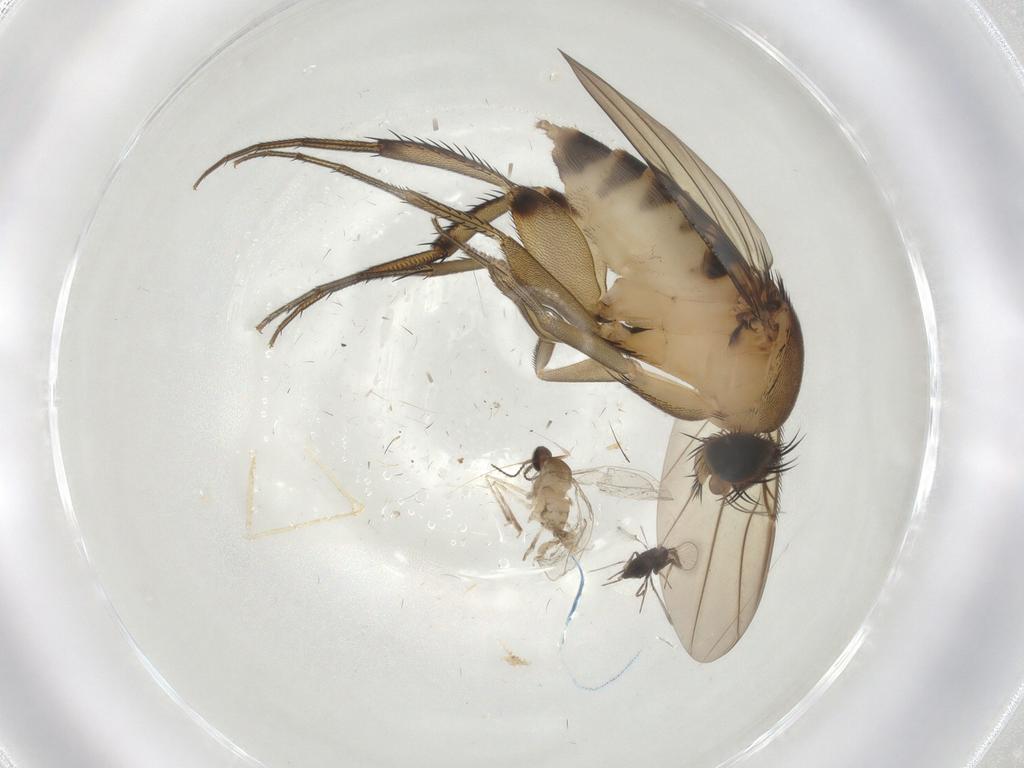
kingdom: Animalia
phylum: Arthropoda
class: Insecta
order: Diptera
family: Phoridae
